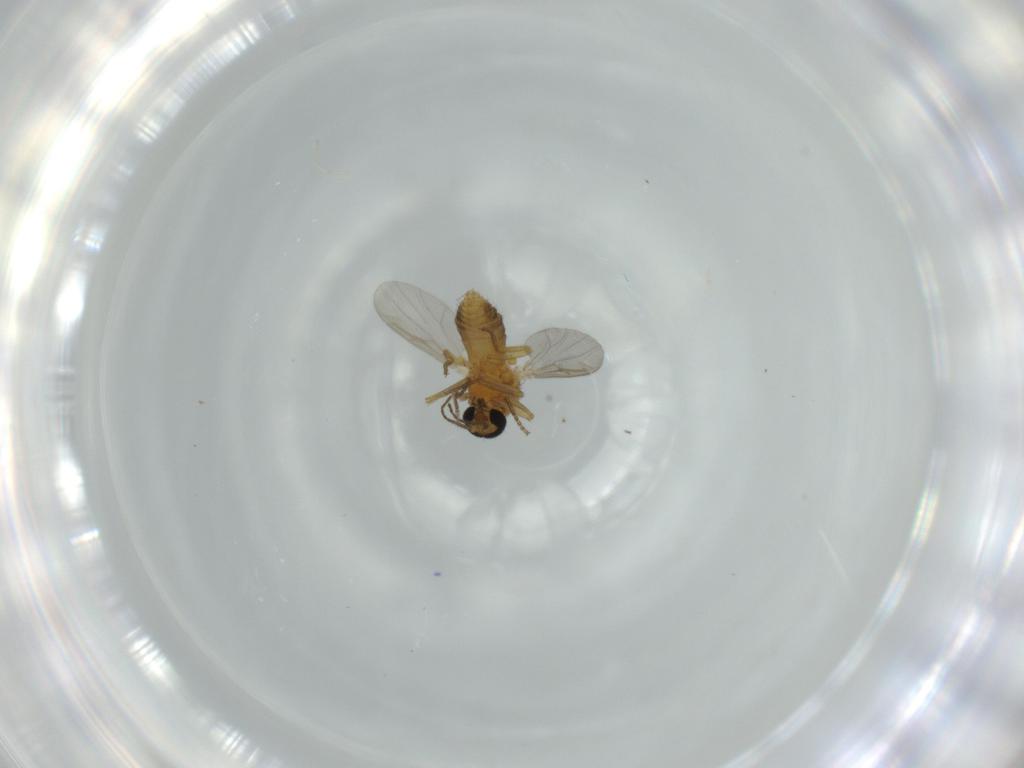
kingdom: Animalia
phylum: Arthropoda
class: Insecta
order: Diptera
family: Ceratopogonidae
